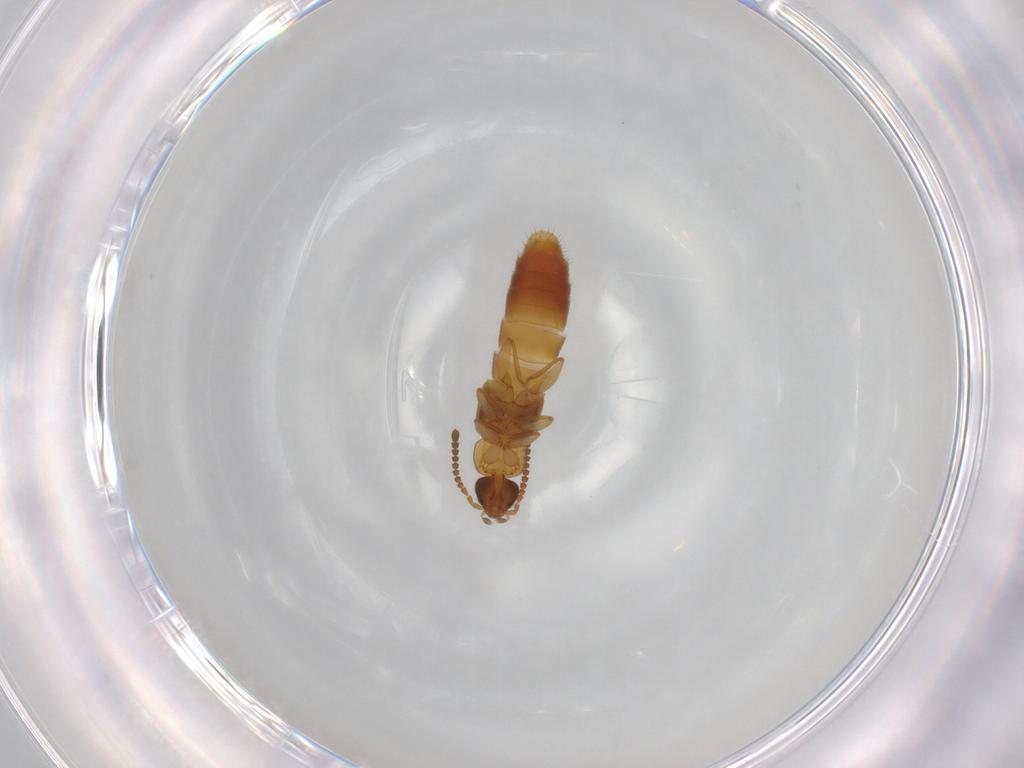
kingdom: Animalia
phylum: Arthropoda
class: Insecta
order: Coleoptera
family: Staphylinidae
